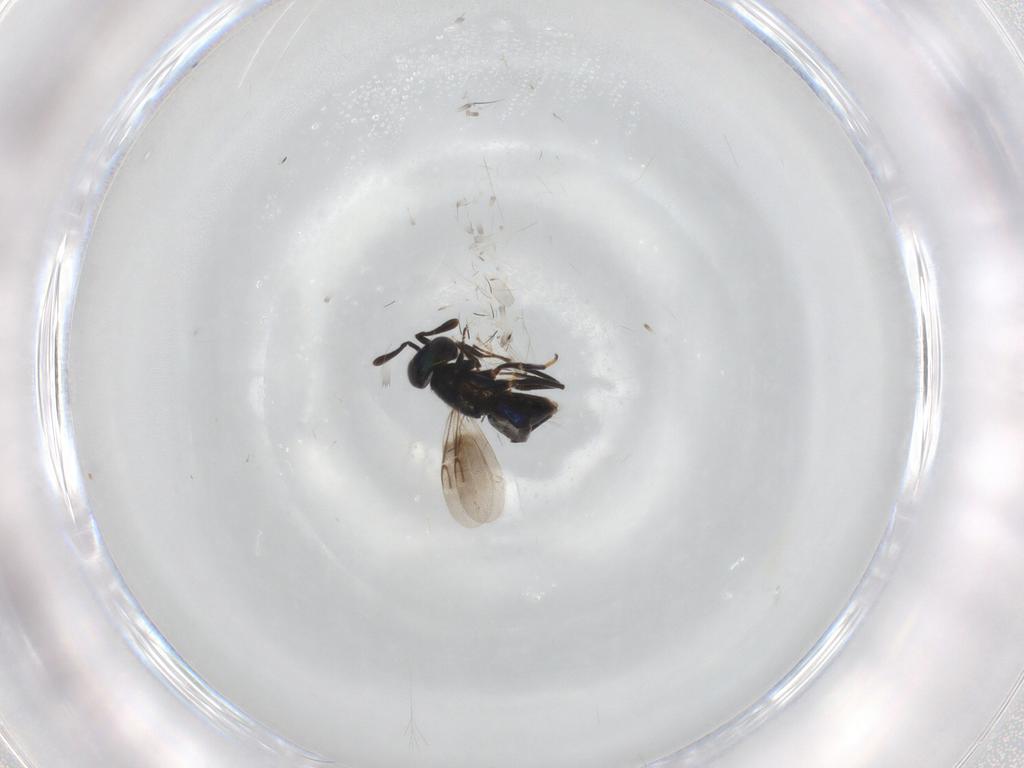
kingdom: Animalia
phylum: Arthropoda
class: Insecta
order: Hymenoptera
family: Encyrtidae
